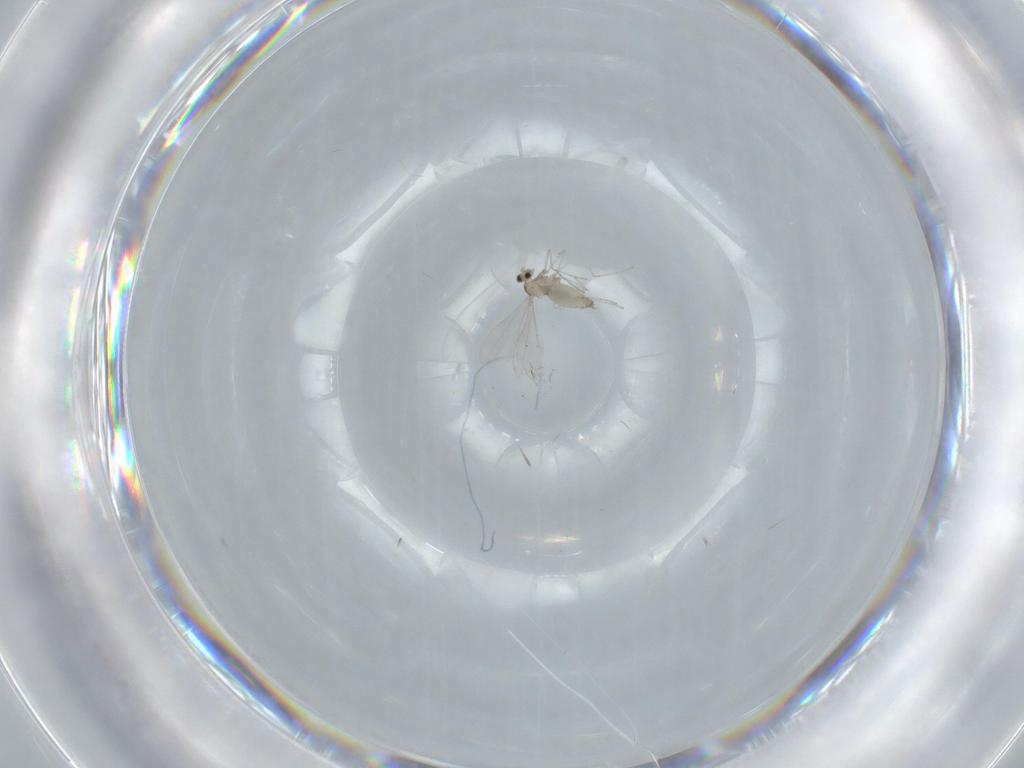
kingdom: Animalia
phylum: Arthropoda
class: Insecta
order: Diptera
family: Cecidomyiidae
